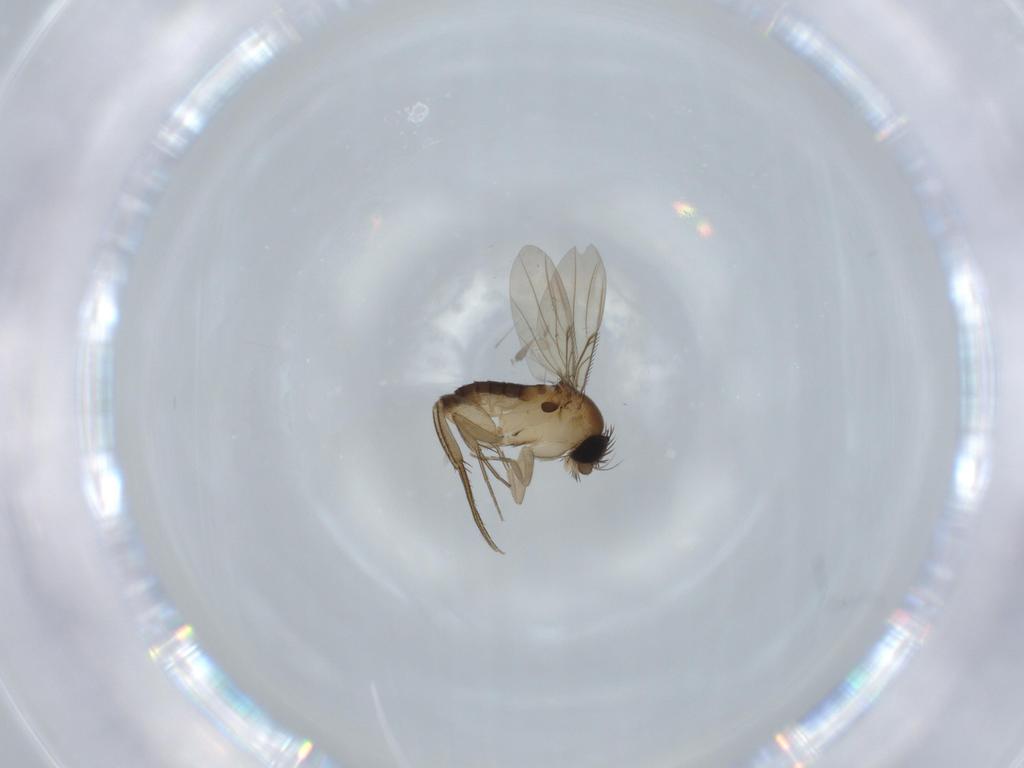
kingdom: Animalia
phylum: Arthropoda
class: Insecta
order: Diptera
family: Phoridae
